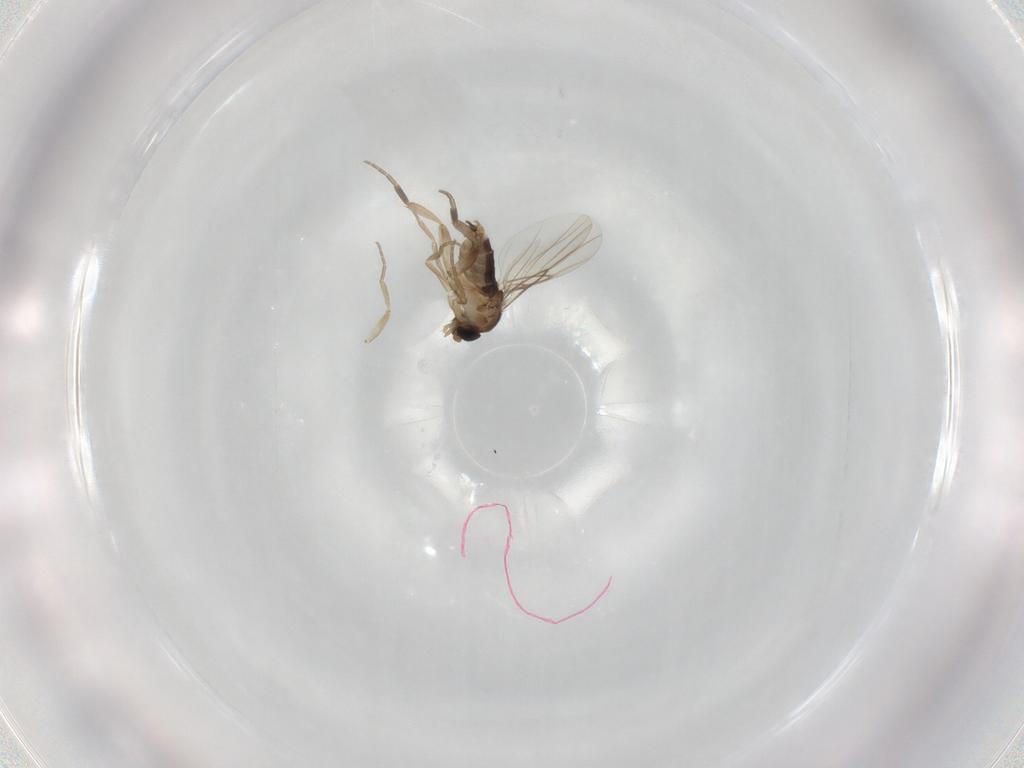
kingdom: Animalia
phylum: Arthropoda
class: Insecta
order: Diptera
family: Phoridae
